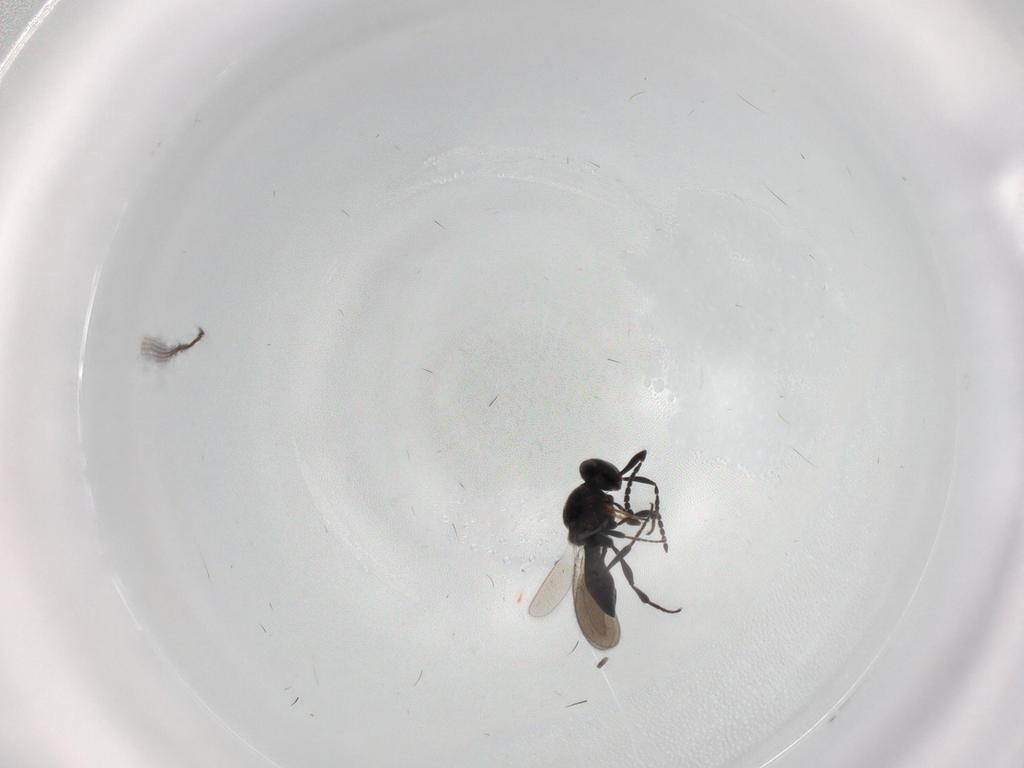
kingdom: Animalia
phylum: Arthropoda
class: Insecta
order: Hymenoptera
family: Platygastridae
